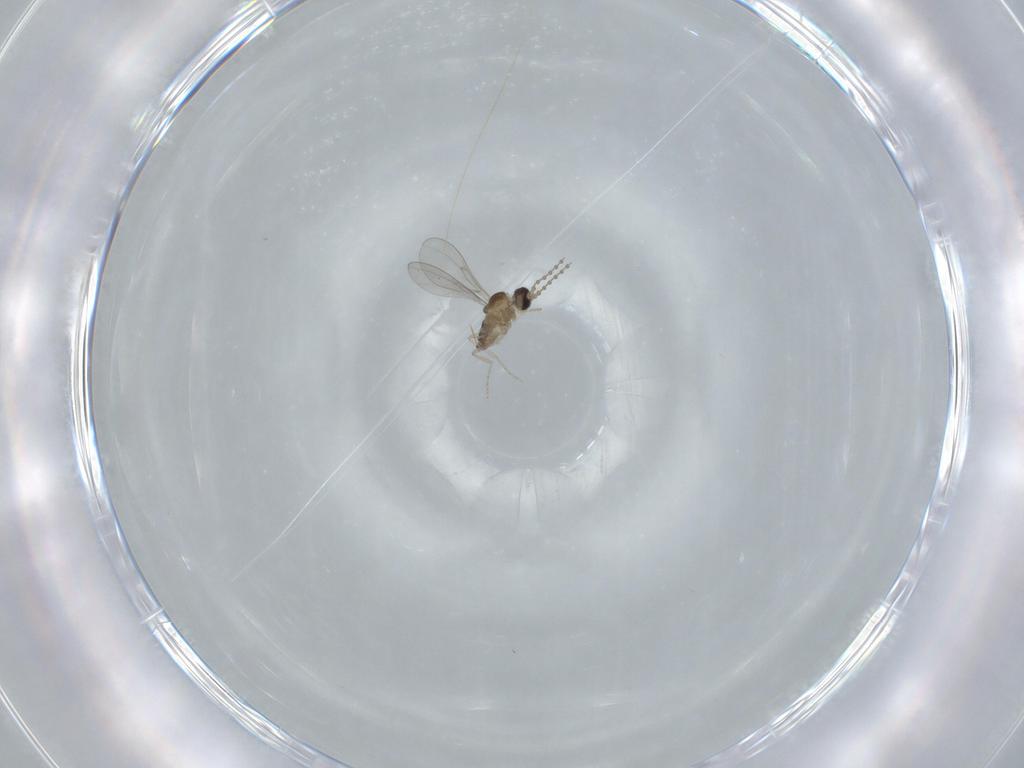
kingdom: Animalia
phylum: Arthropoda
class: Insecta
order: Diptera
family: Cecidomyiidae
